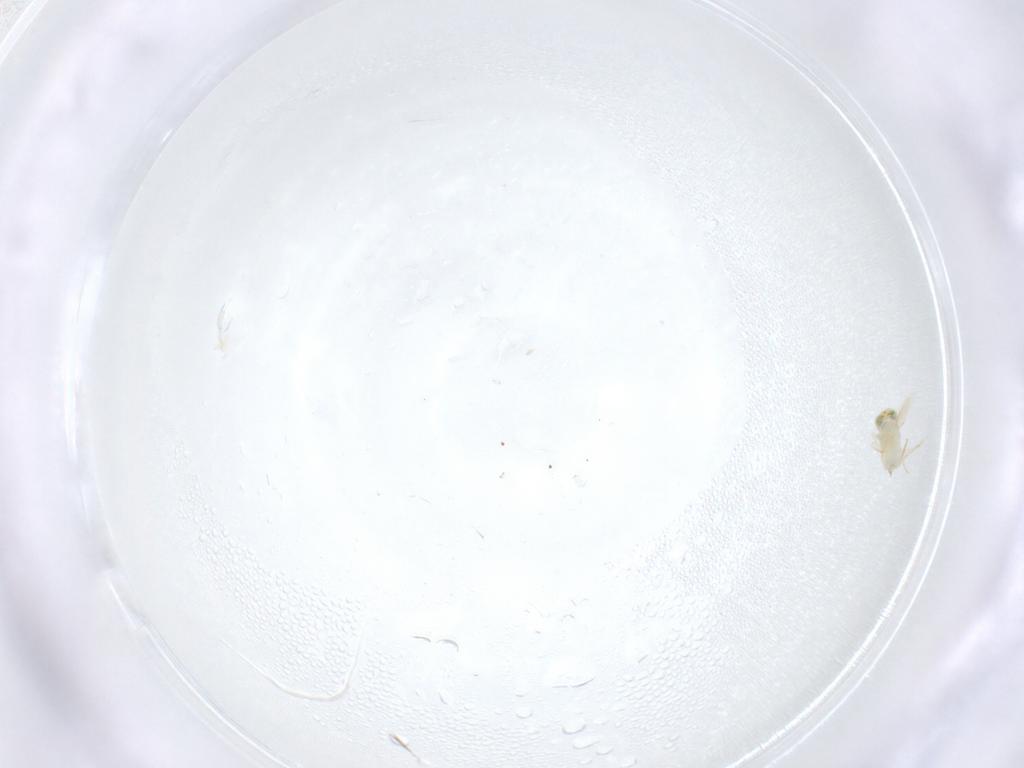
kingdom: Animalia
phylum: Arthropoda
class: Insecta
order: Hymenoptera
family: Aphelinidae
